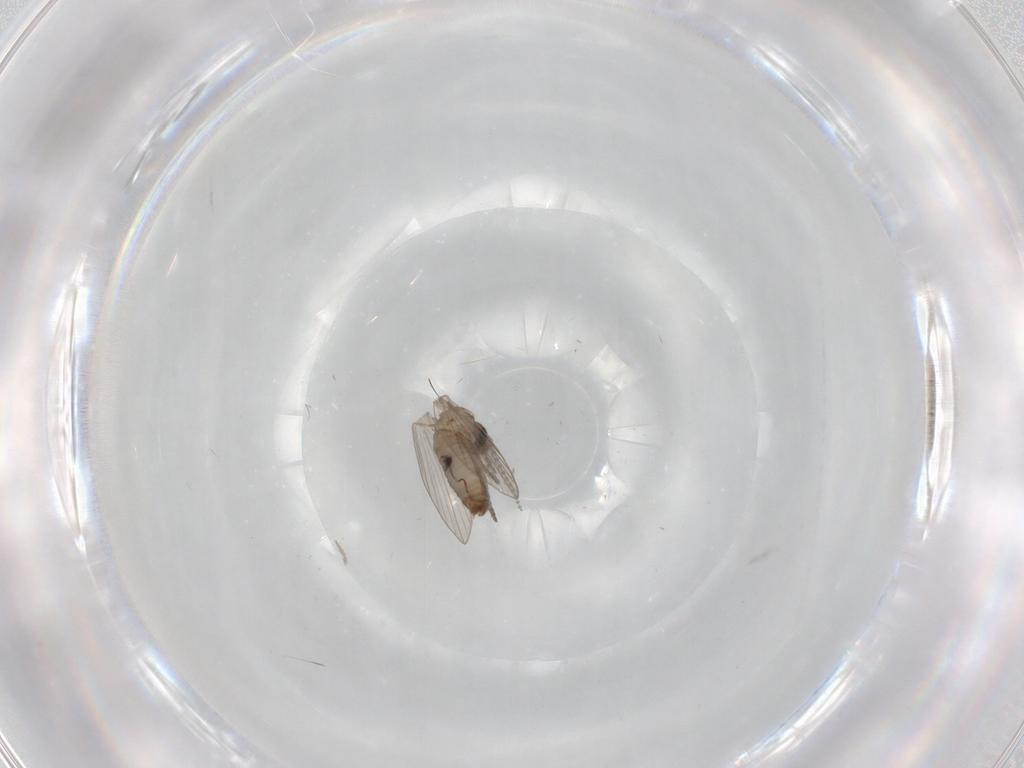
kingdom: Animalia
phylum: Arthropoda
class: Insecta
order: Diptera
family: Psychodidae
